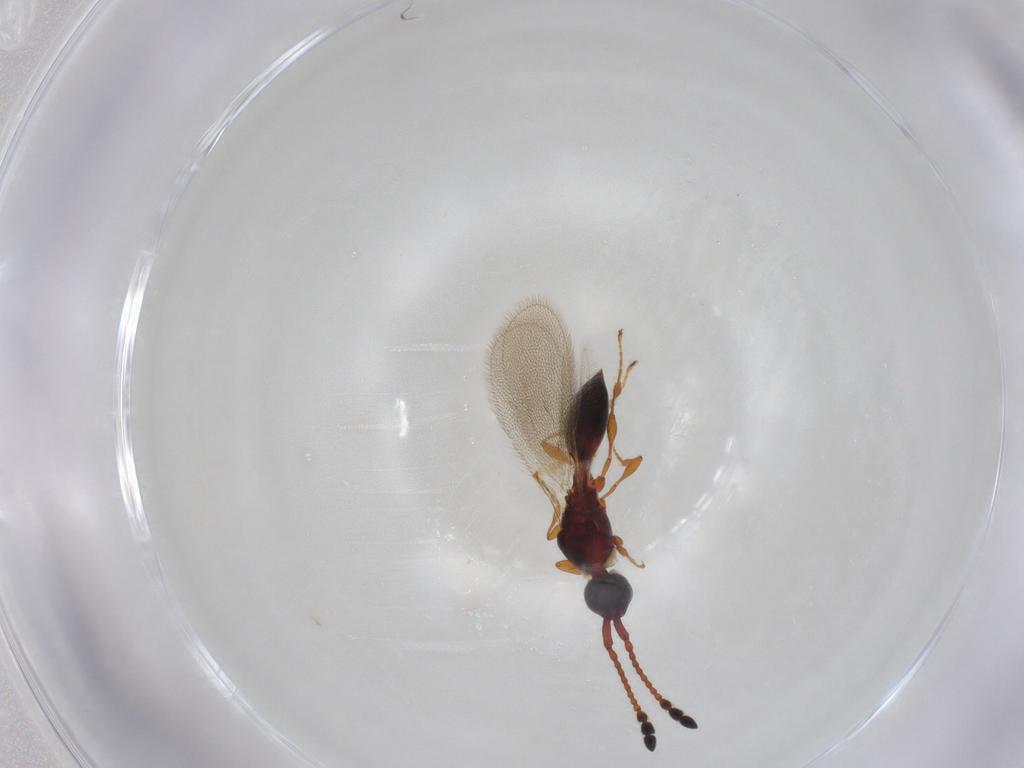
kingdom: Animalia
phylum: Arthropoda
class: Insecta
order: Hymenoptera
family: Diapriidae
